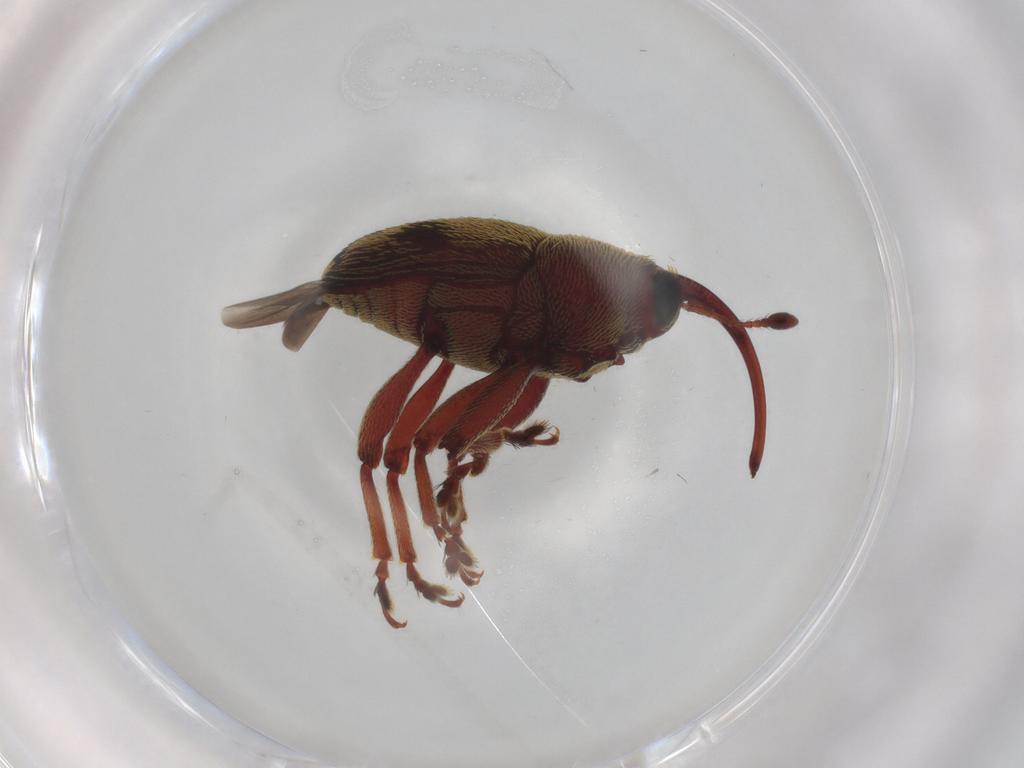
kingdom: Animalia
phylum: Arthropoda
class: Insecta
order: Coleoptera
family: Curculionidae
